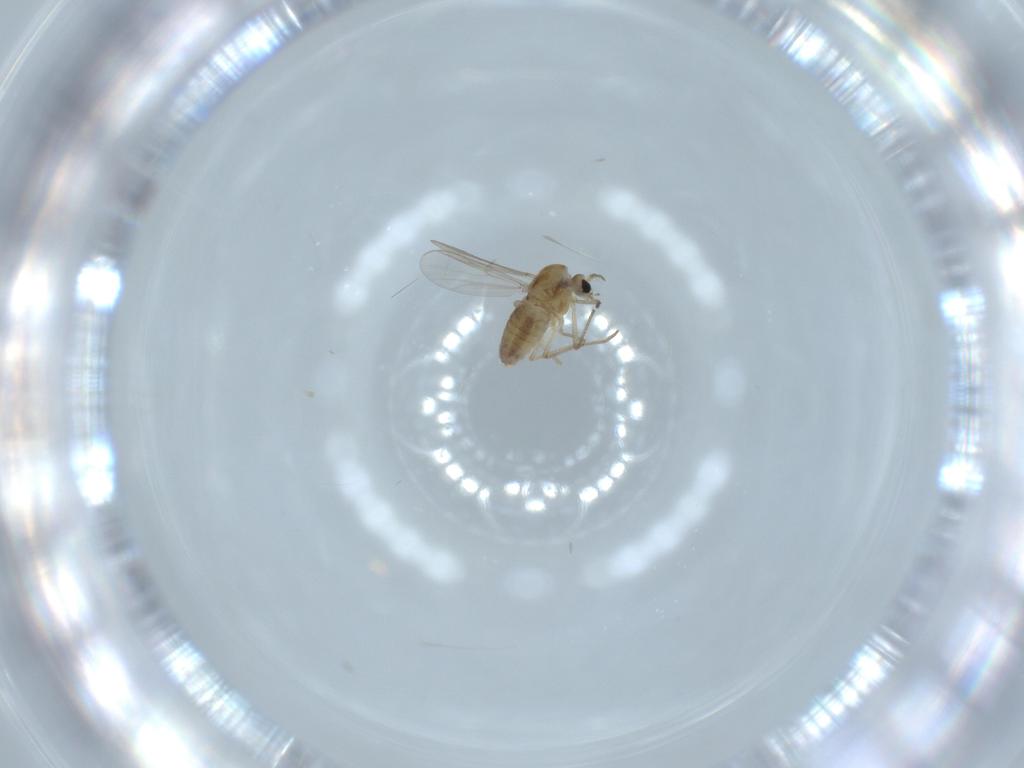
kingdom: Animalia
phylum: Arthropoda
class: Insecta
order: Diptera
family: Chironomidae
